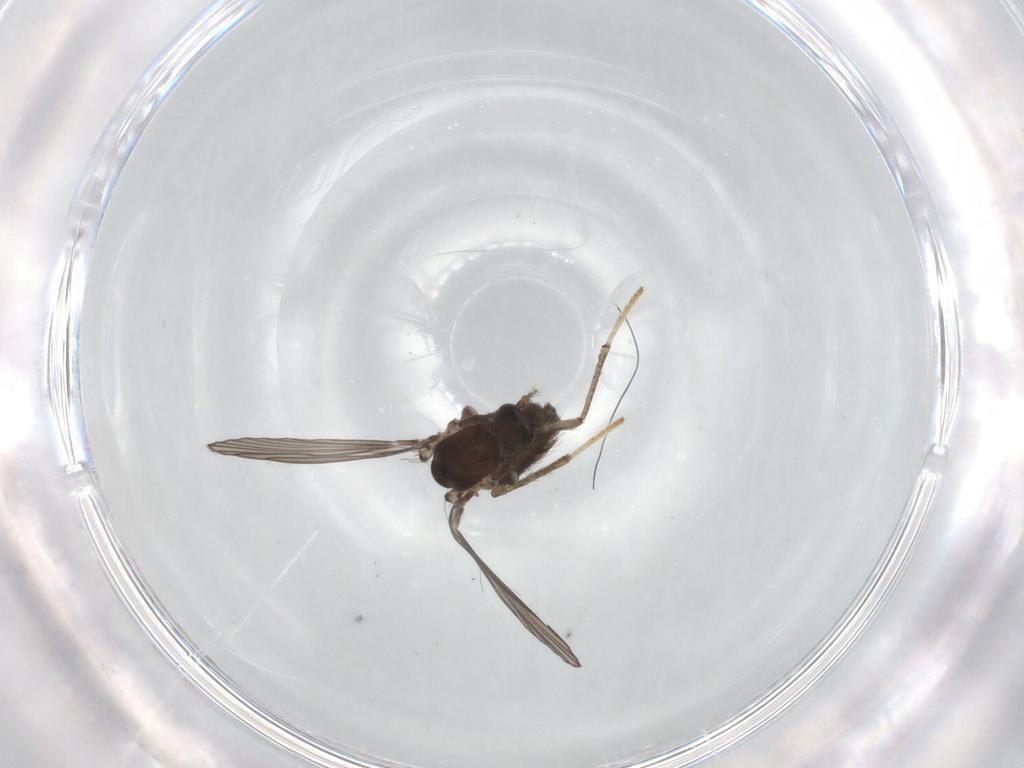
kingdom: Animalia
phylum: Arthropoda
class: Insecta
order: Diptera
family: Psychodidae
